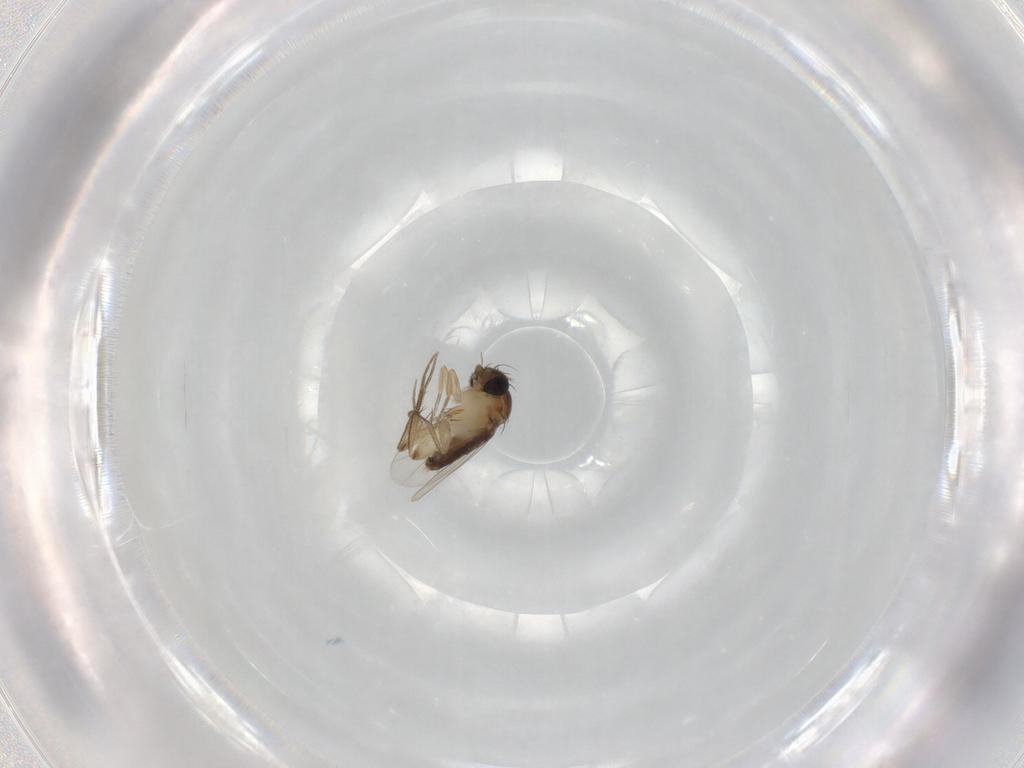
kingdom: Animalia
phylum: Arthropoda
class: Insecta
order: Diptera
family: Phoridae
